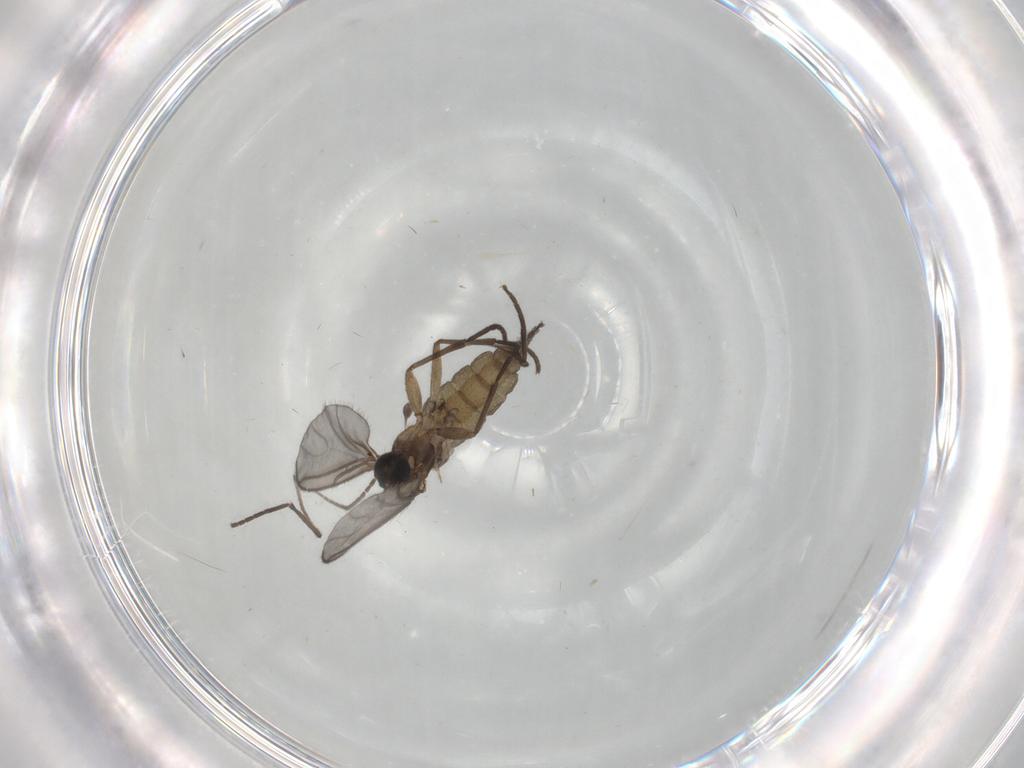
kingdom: Animalia
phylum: Arthropoda
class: Insecta
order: Diptera
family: Sciaridae
